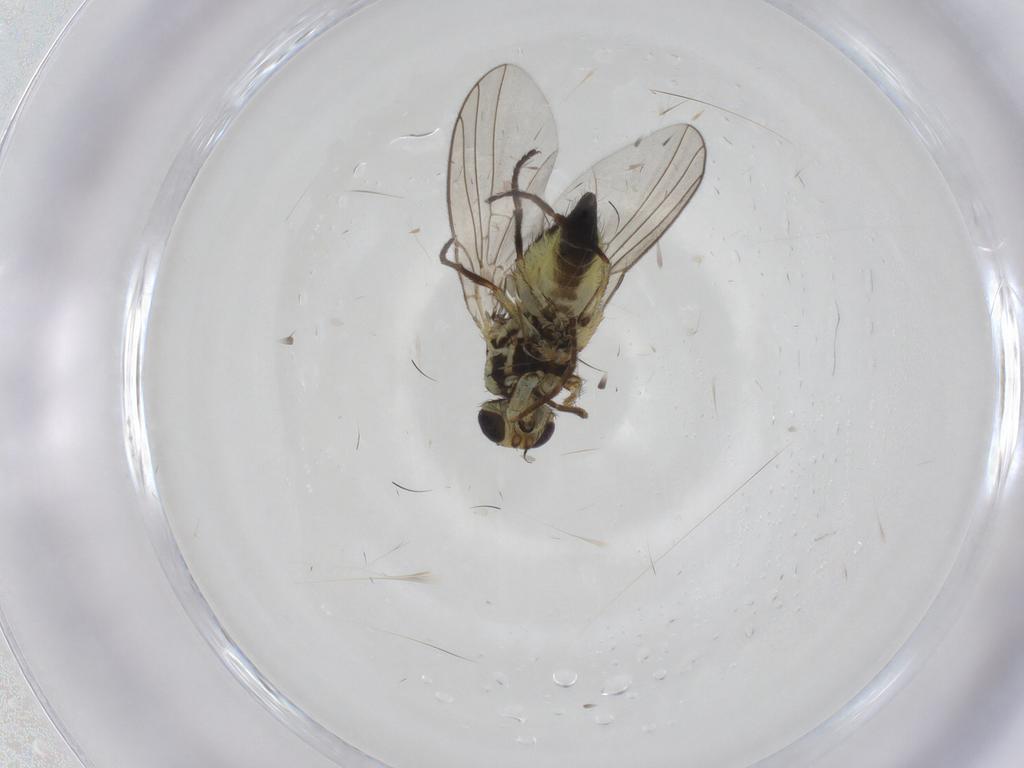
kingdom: Animalia
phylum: Arthropoda
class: Insecta
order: Diptera
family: Agromyzidae
